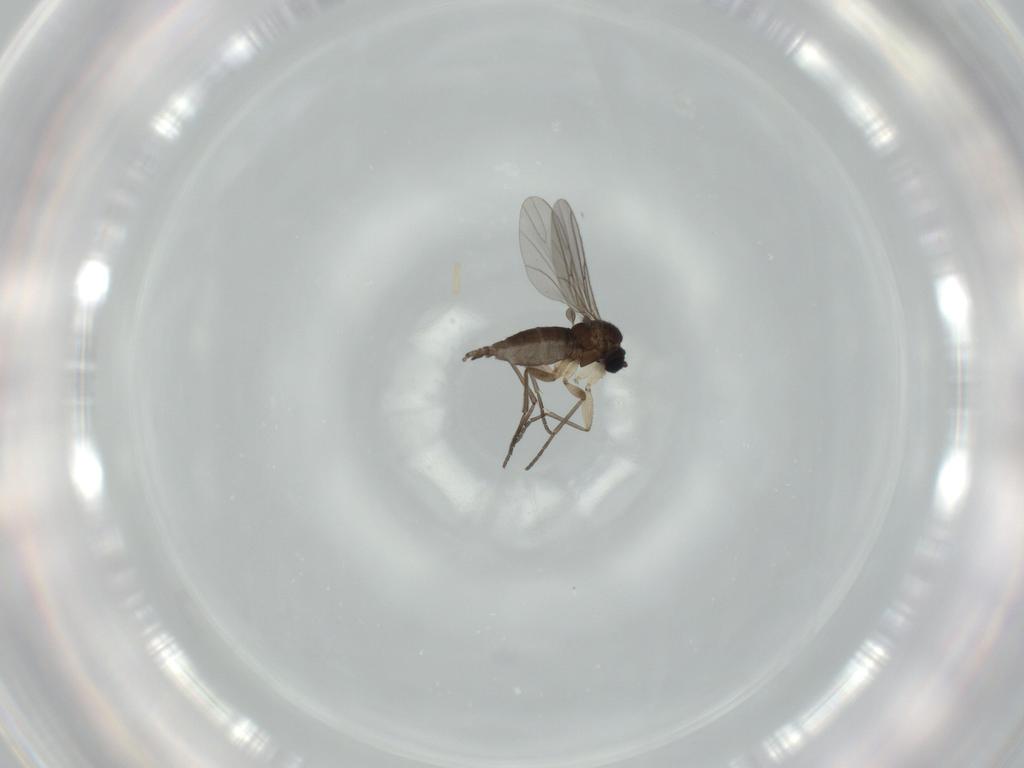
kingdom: Animalia
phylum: Arthropoda
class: Insecta
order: Diptera
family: Sciaridae
